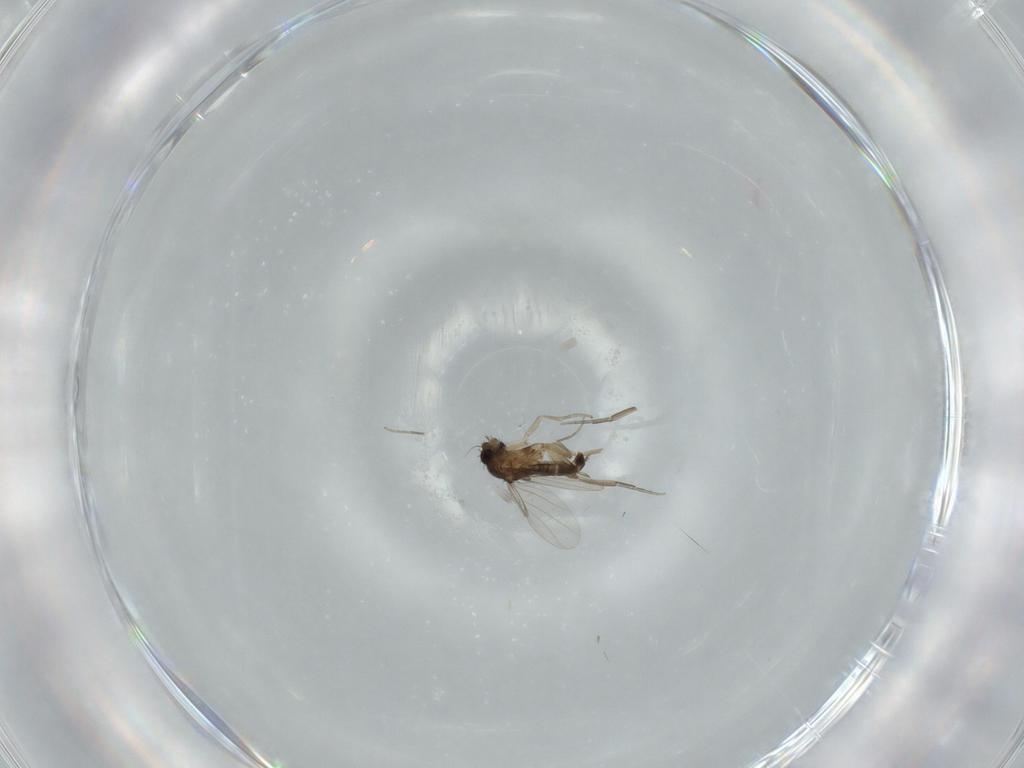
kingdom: Animalia
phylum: Arthropoda
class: Insecta
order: Diptera
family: Phoridae
